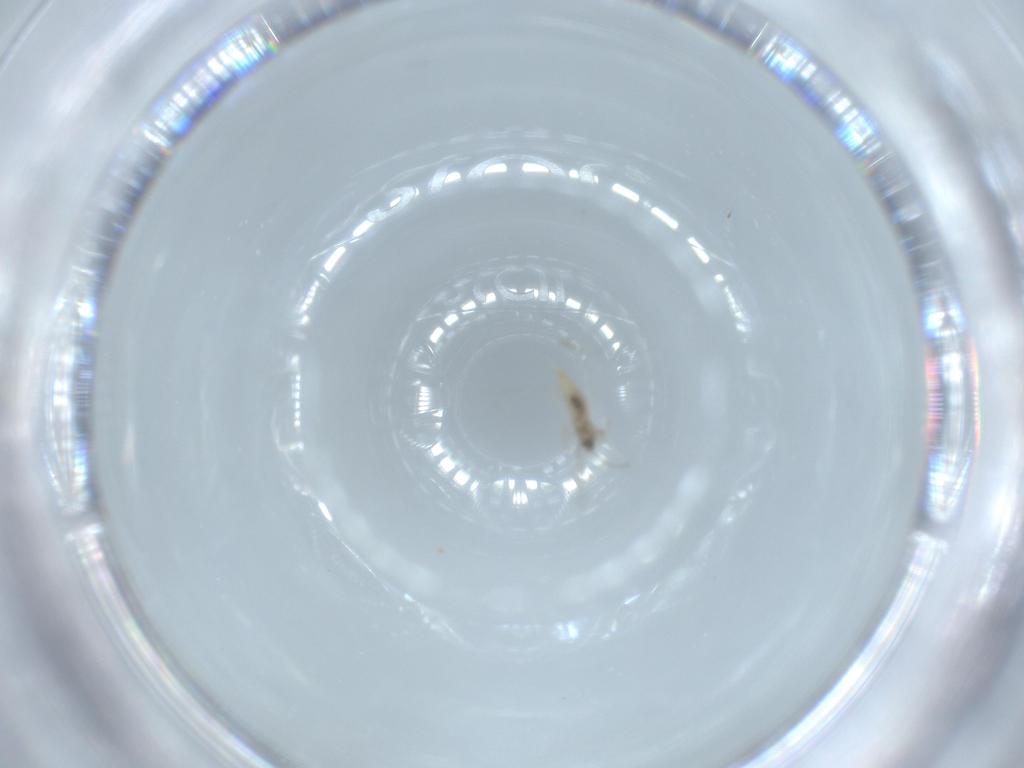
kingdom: Animalia
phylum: Arthropoda
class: Insecta
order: Diptera
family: Cecidomyiidae
